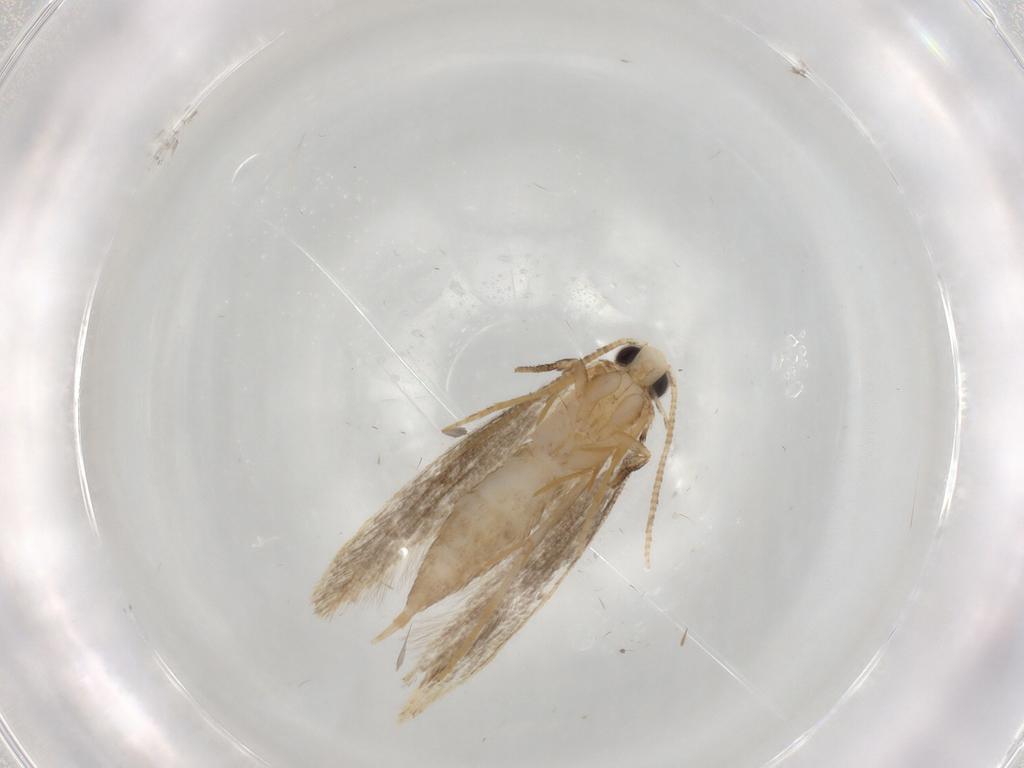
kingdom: Animalia
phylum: Arthropoda
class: Insecta
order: Lepidoptera
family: Tineidae
